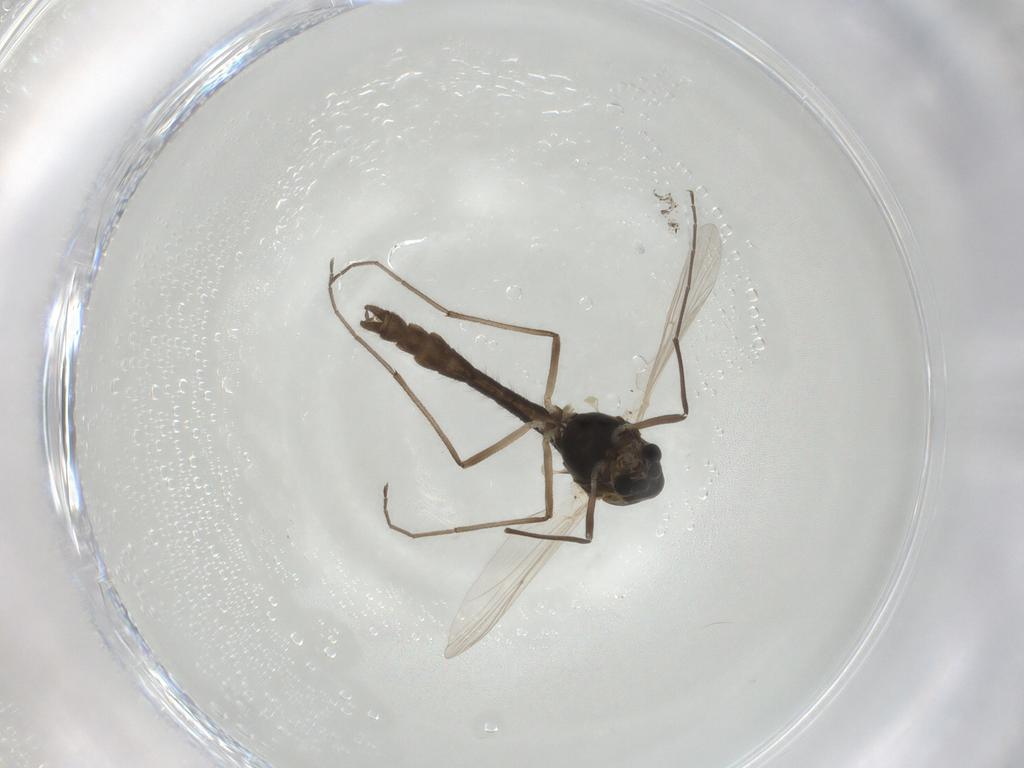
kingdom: Animalia
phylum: Arthropoda
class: Insecta
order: Diptera
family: Chironomidae
